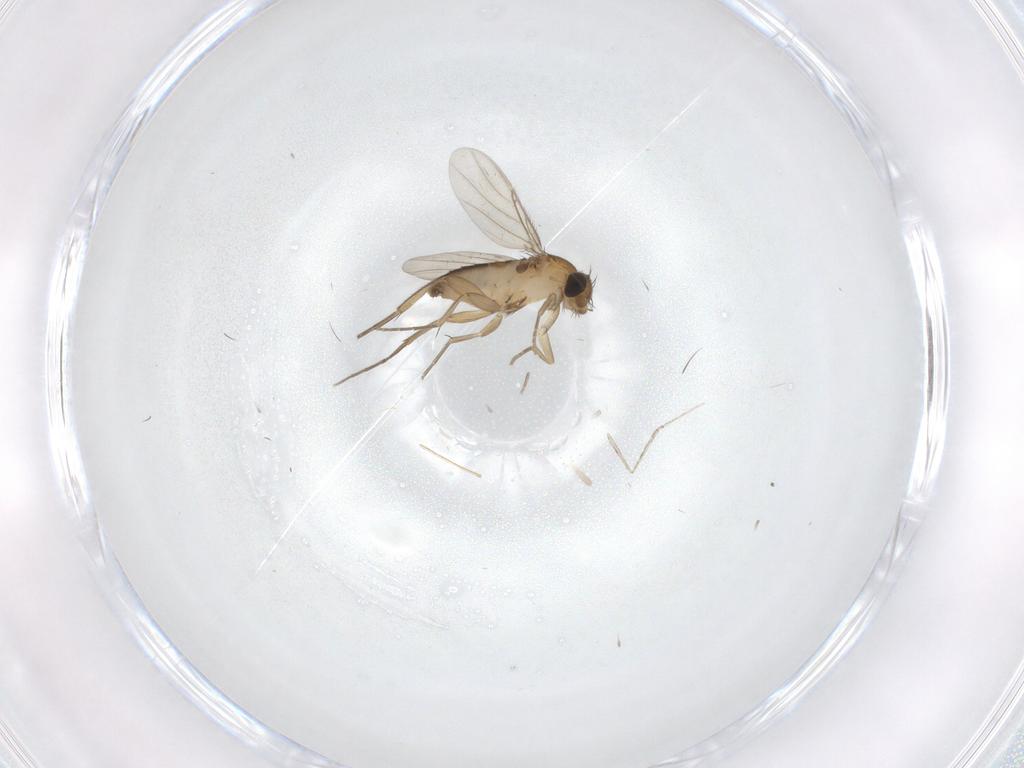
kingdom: Animalia
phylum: Arthropoda
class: Insecta
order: Diptera
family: Phoridae
